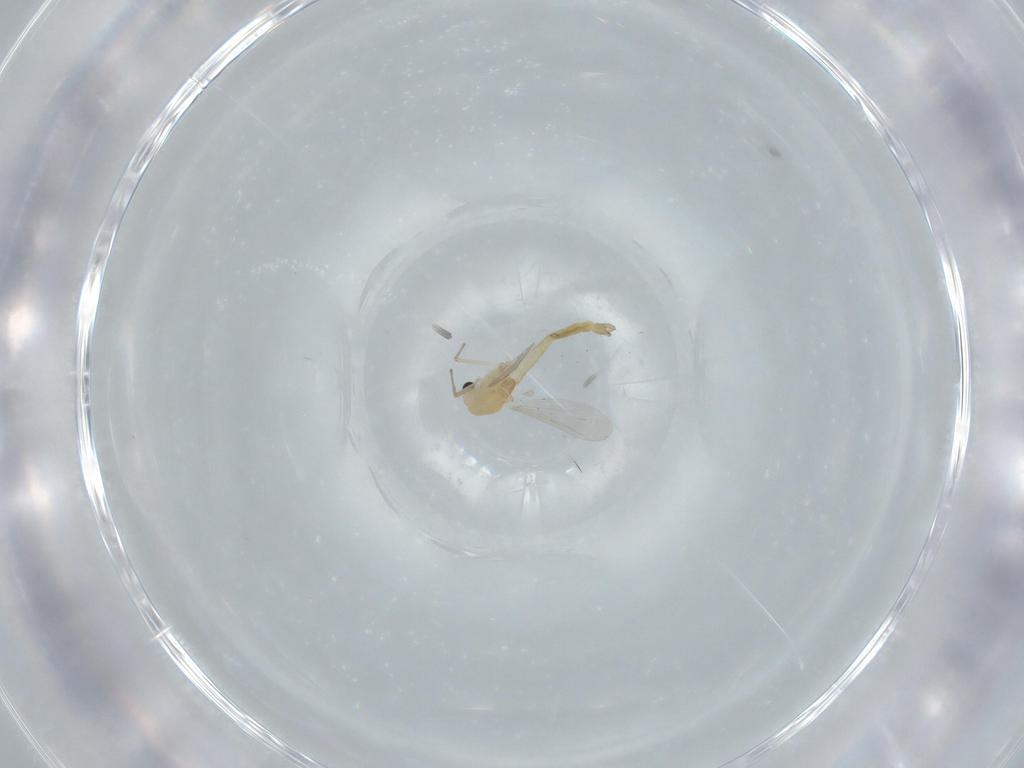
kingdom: Animalia
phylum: Arthropoda
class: Insecta
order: Diptera
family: Chironomidae
